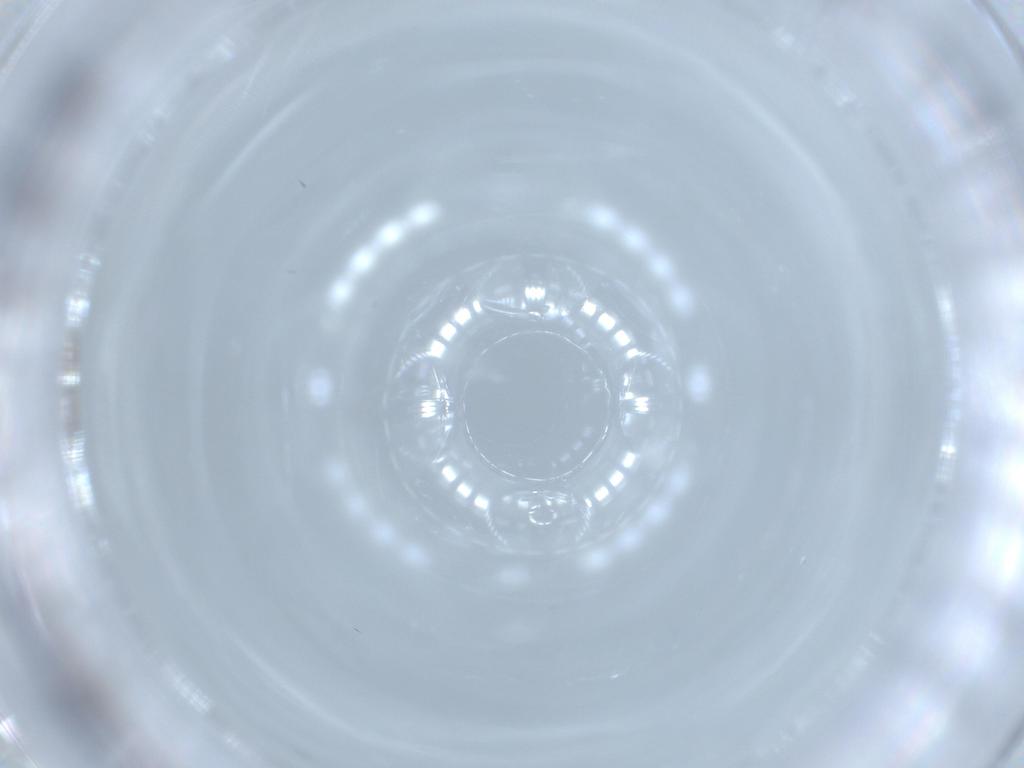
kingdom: Animalia
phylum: Arthropoda
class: Insecta
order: Hemiptera
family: Aleyrodidae
